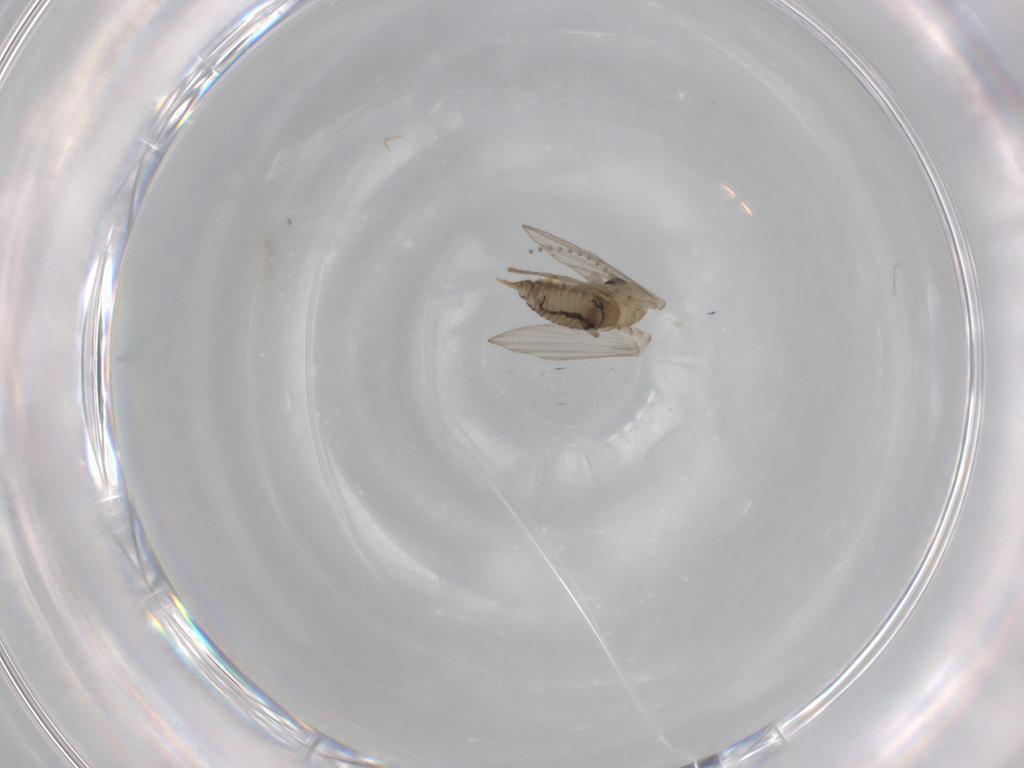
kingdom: Animalia
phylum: Arthropoda
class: Insecta
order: Diptera
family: Psychodidae
